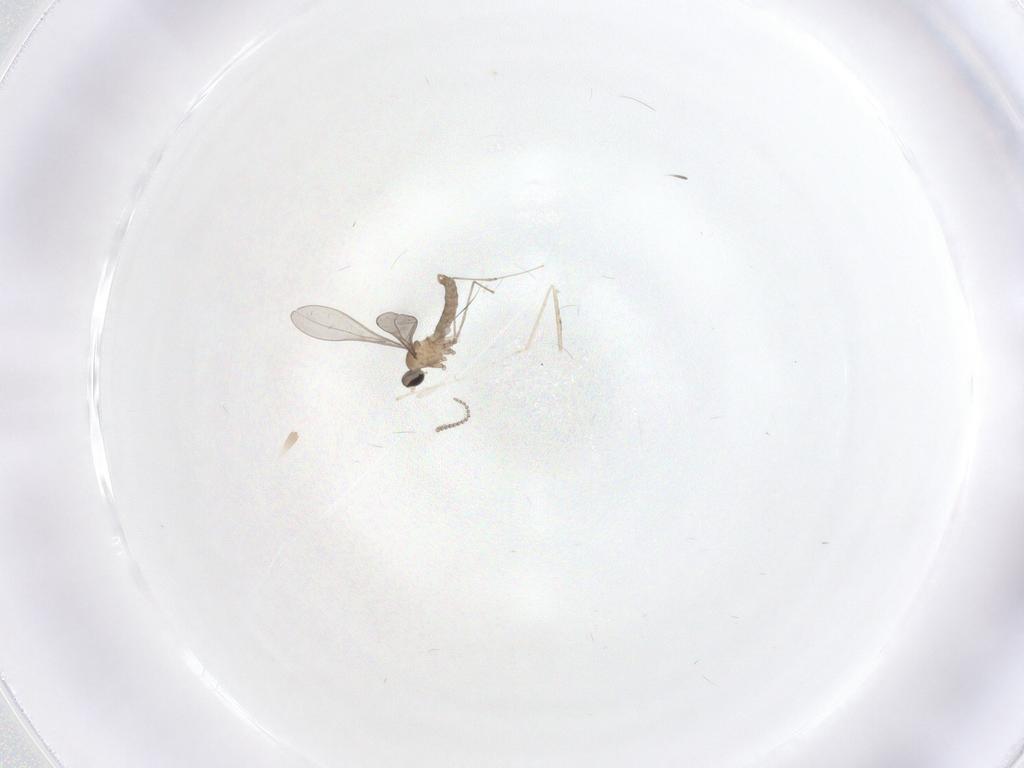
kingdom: Animalia
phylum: Arthropoda
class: Insecta
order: Diptera
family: Cecidomyiidae
